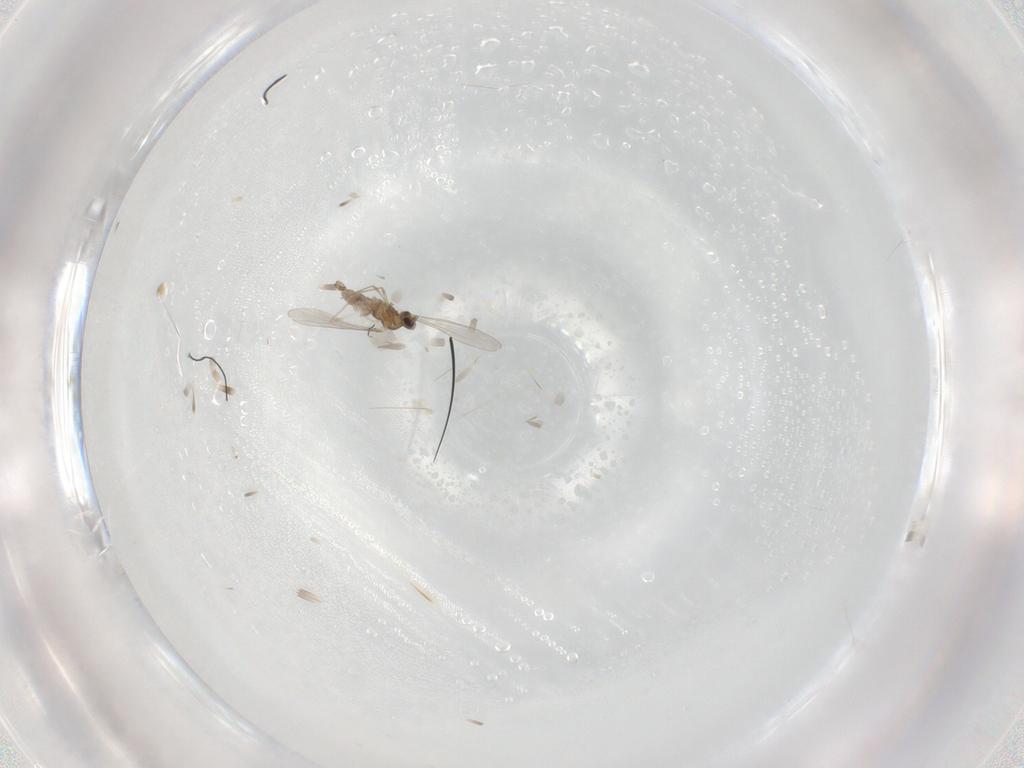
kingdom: Animalia
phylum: Arthropoda
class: Insecta
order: Diptera
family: Cecidomyiidae
